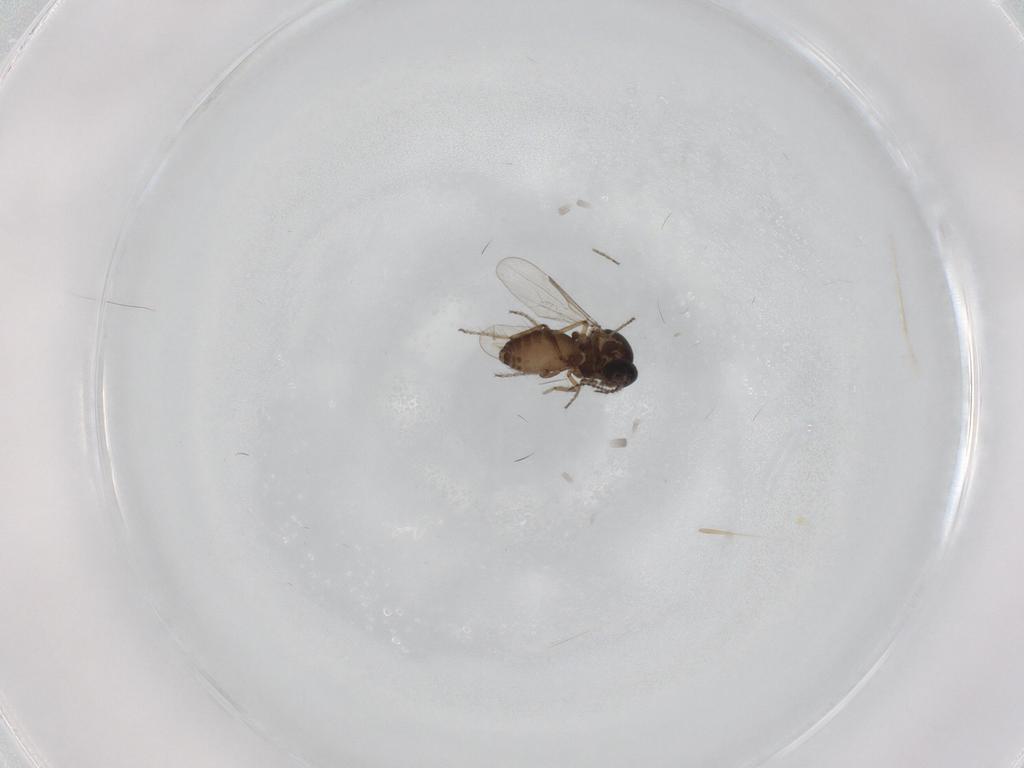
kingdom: Animalia
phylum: Arthropoda
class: Insecta
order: Diptera
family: Ceratopogonidae
